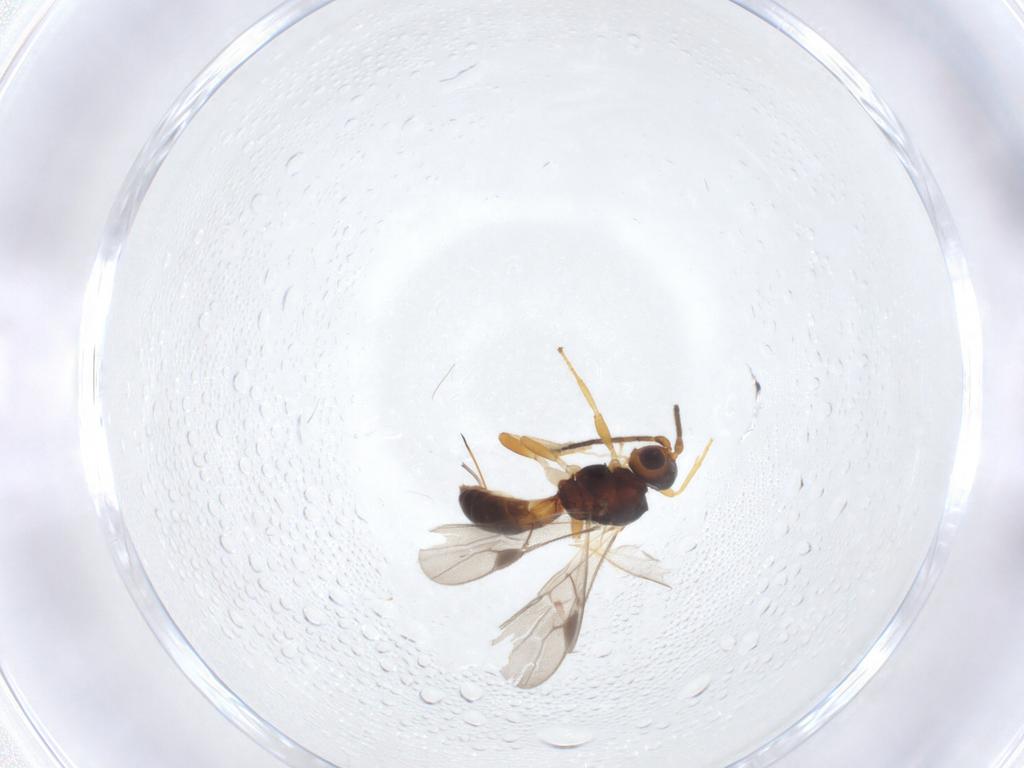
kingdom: Animalia
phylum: Arthropoda
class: Insecta
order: Hymenoptera
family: Braconidae
